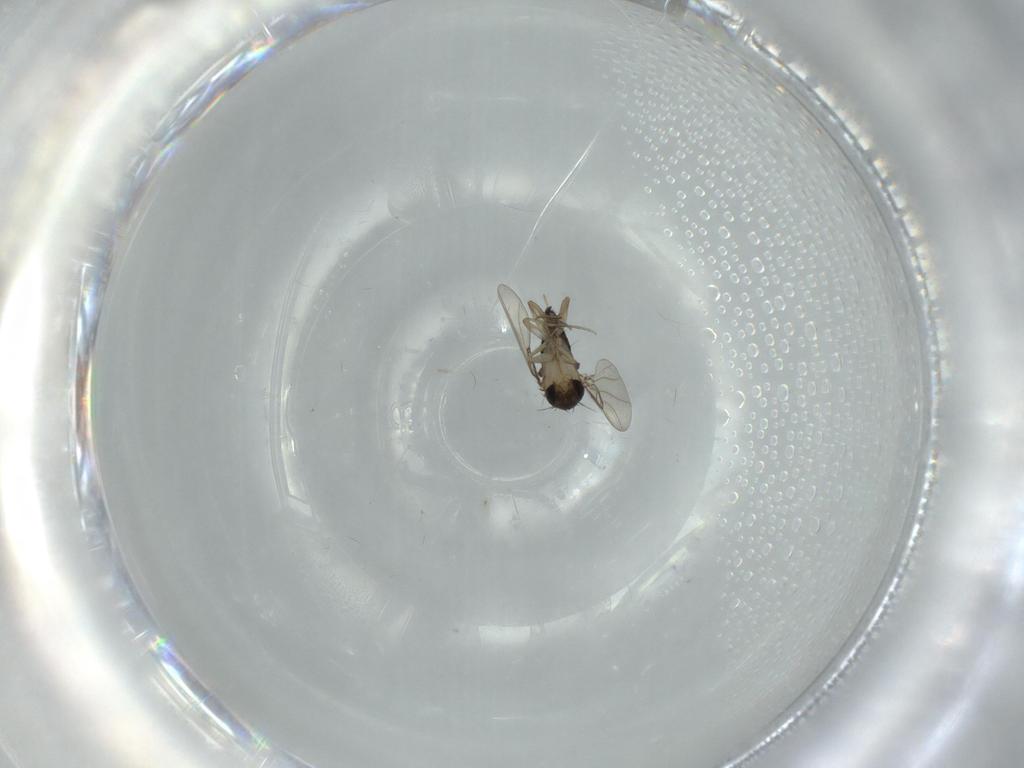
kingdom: Animalia
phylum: Arthropoda
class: Insecta
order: Diptera
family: Phoridae
